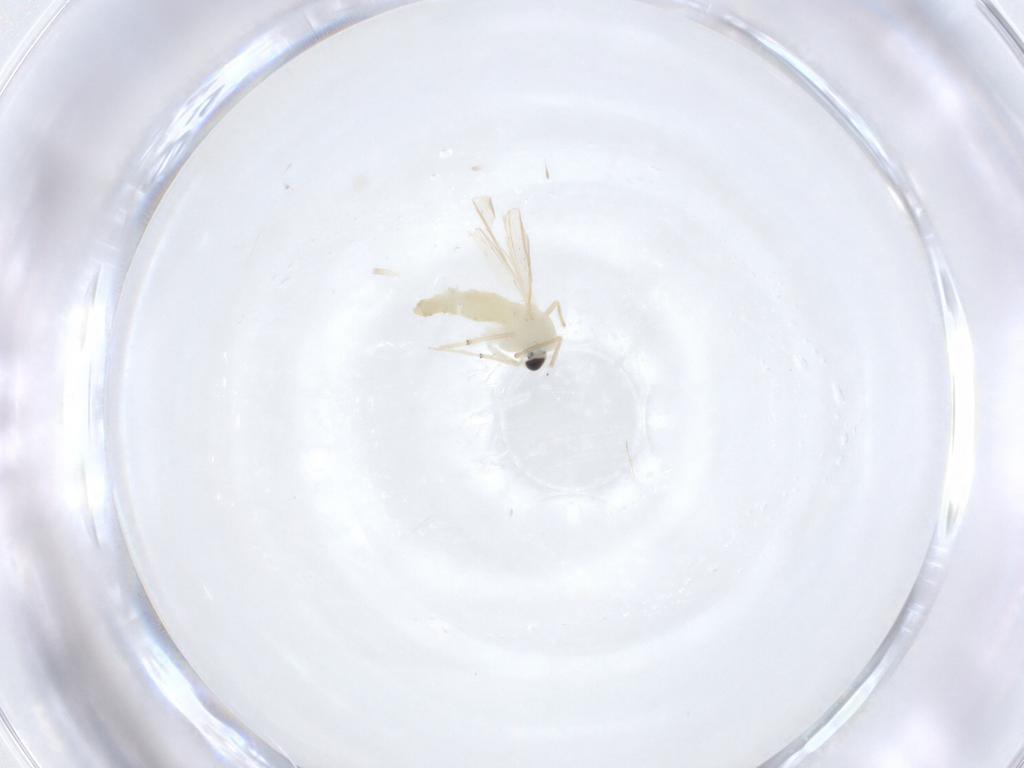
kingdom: Animalia
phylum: Arthropoda
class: Insecta
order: Diptera
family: Chironomidae
